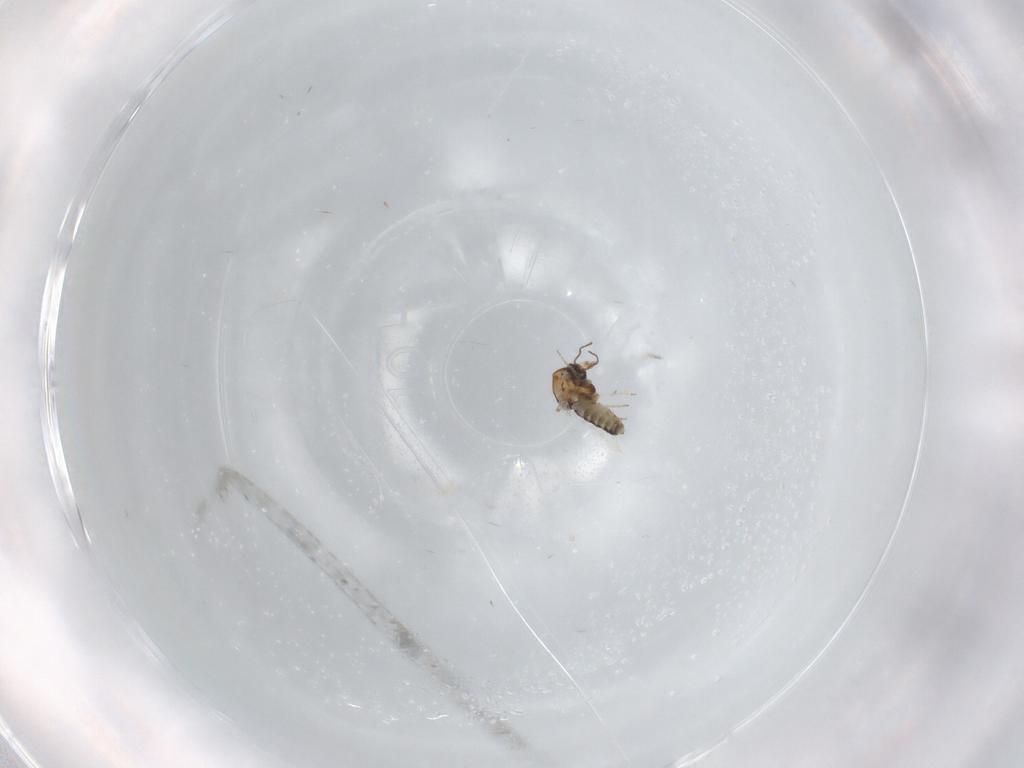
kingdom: Animalia
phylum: Arthropoda
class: Insecta
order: Diptera
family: Ceratopogonidae
